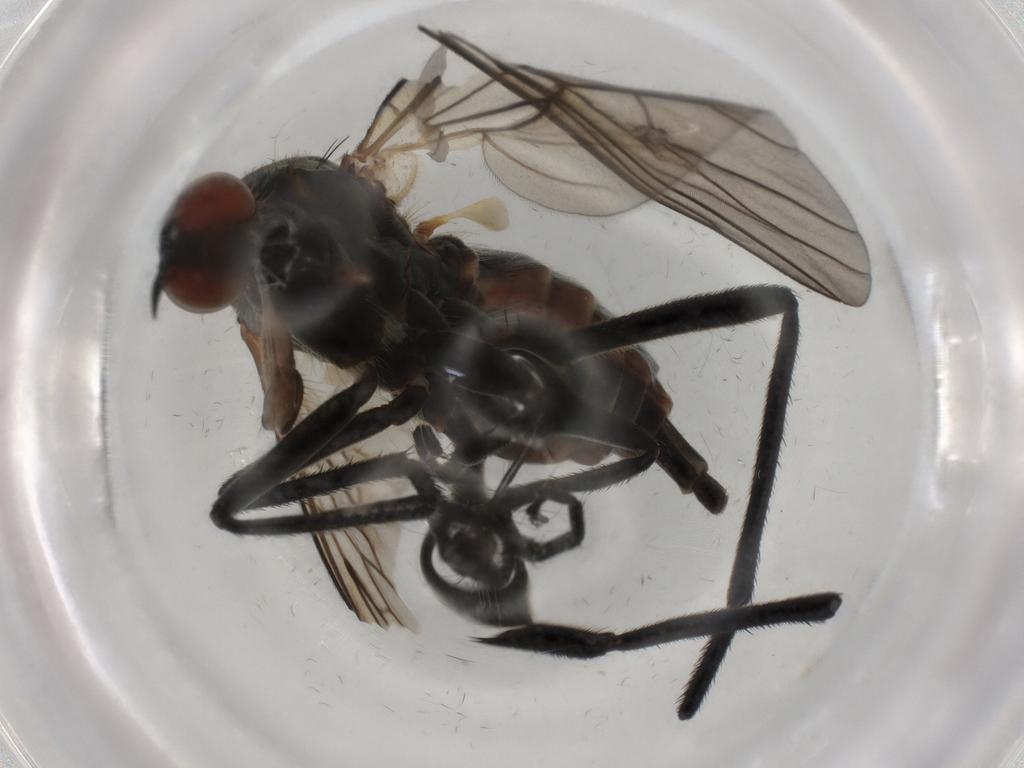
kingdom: Animalia
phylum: Arthropoda
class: Insecta
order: Diptera
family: Empididae
